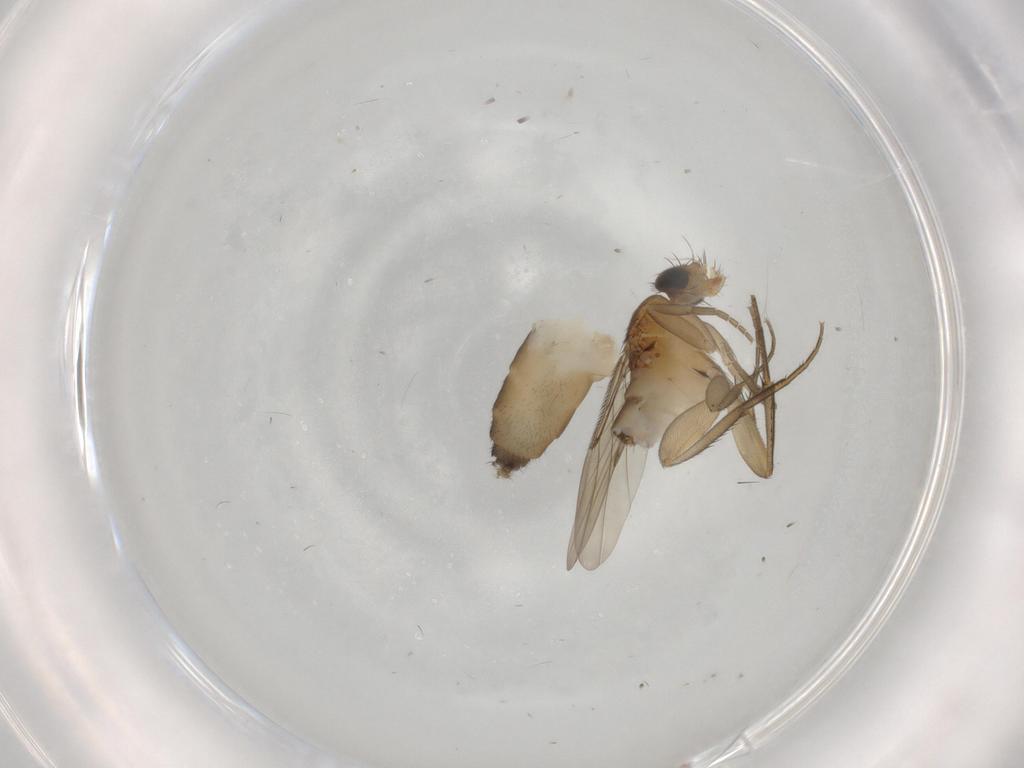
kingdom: Animalia
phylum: Arthropoda
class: Insecta
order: Diptera
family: Phoridae
